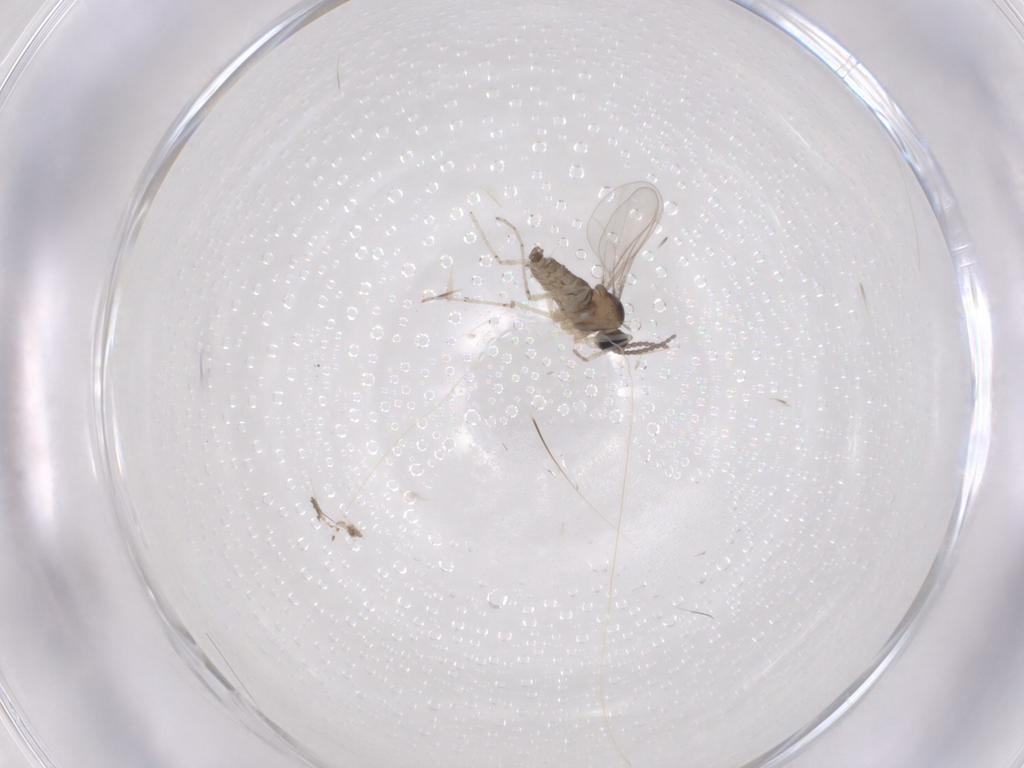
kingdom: Animalia
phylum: Arthropoda
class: Insecta
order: Diptera
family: Cecidomyiidae
